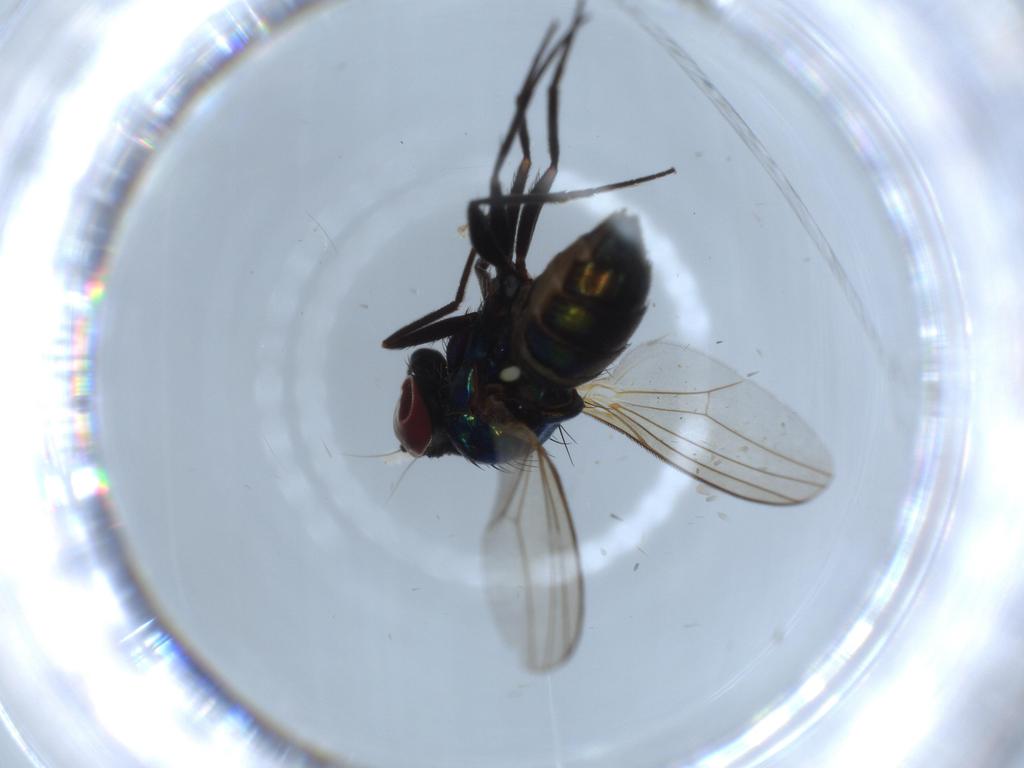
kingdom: Animalia
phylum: Arthropoda
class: Insecta
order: Diptera
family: Dolichopodidae
